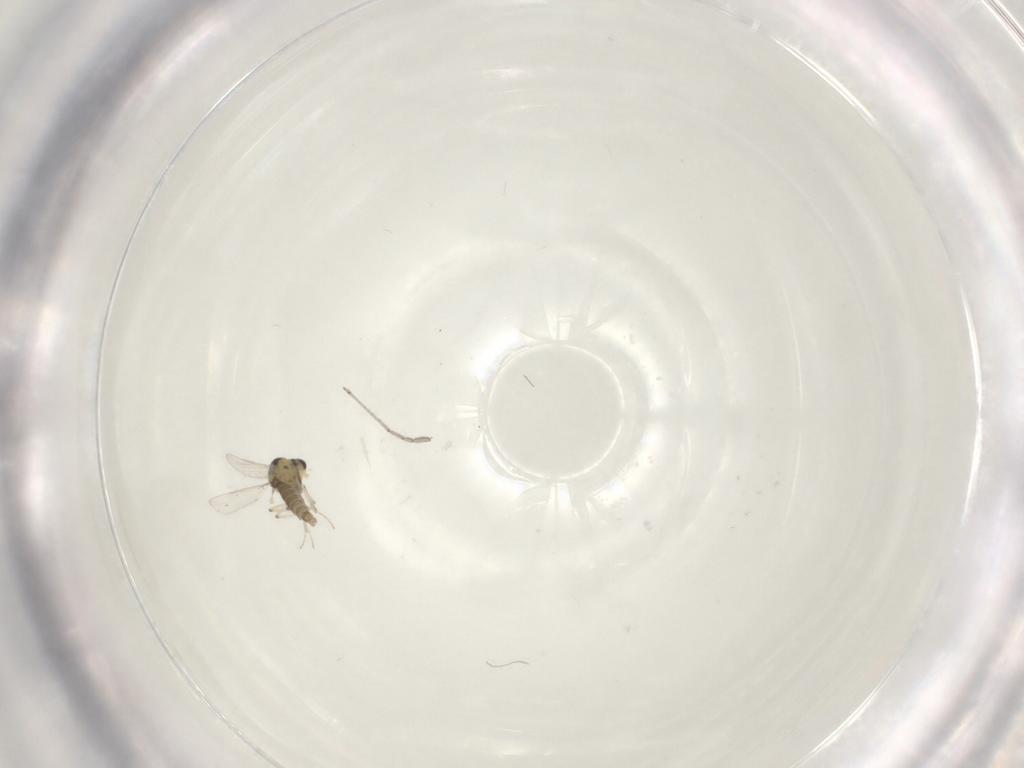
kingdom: Animalia
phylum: Arthropoda
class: Insecta
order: Diptera
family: Cecidomyiidae
